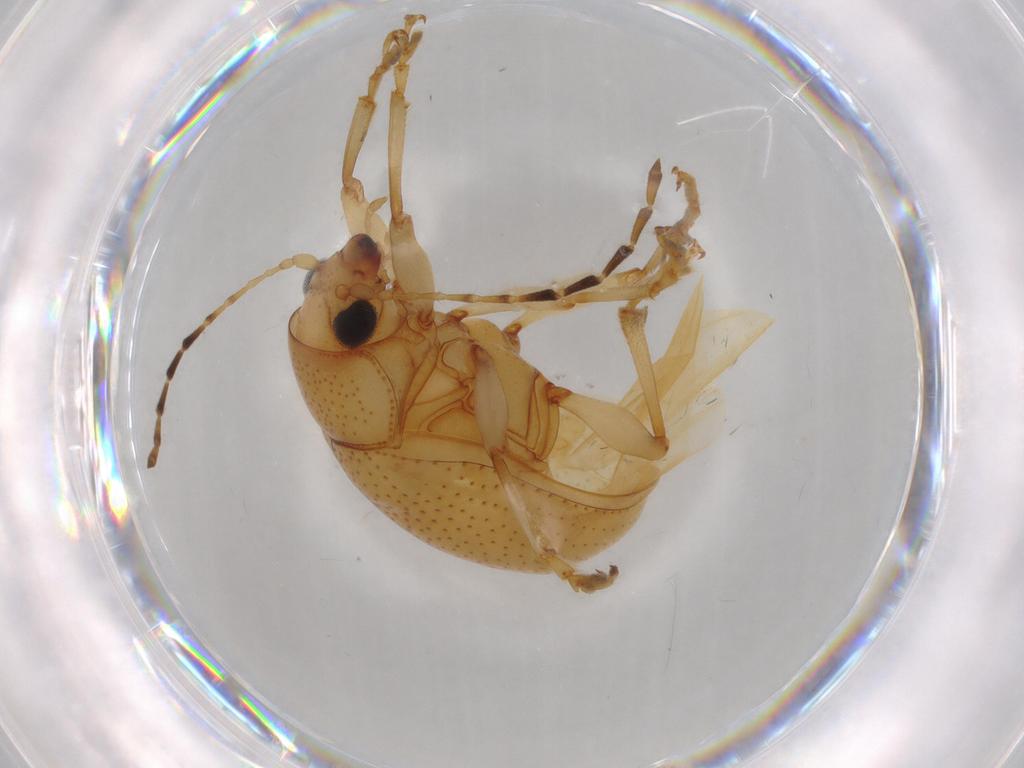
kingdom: Animalia
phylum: Arthropoda
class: Insecta
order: Coleoptera
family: Chrysomelidae
